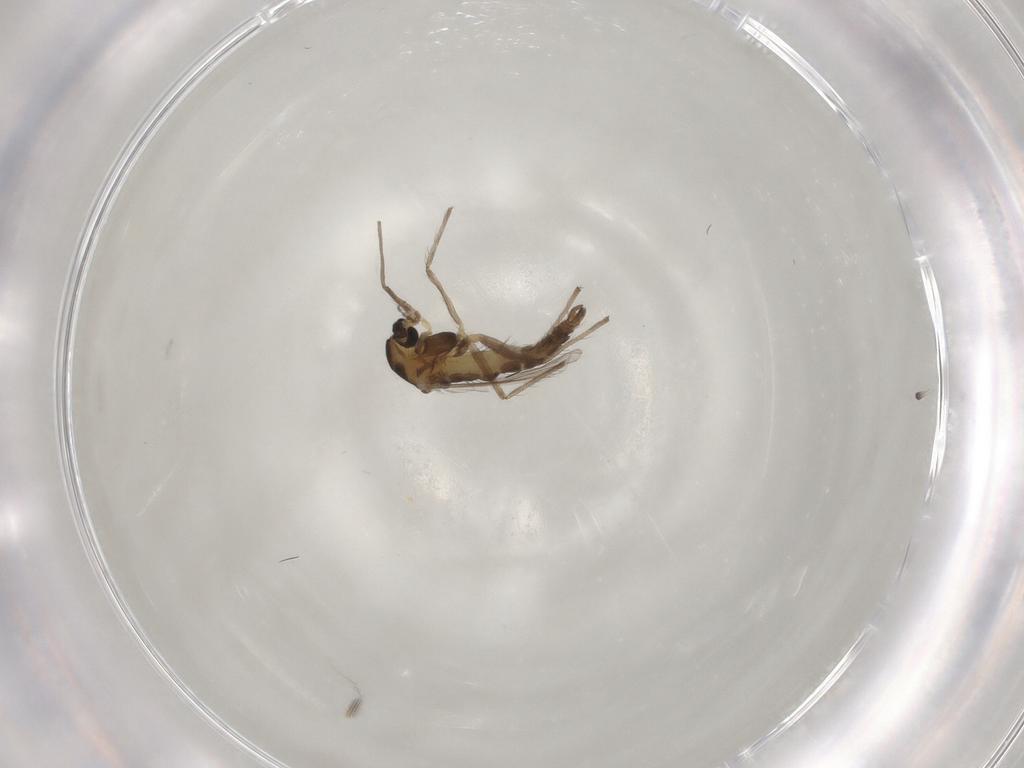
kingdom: Animalia
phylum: Arthropoda
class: Insecta
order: Diptera
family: Chironomidae
